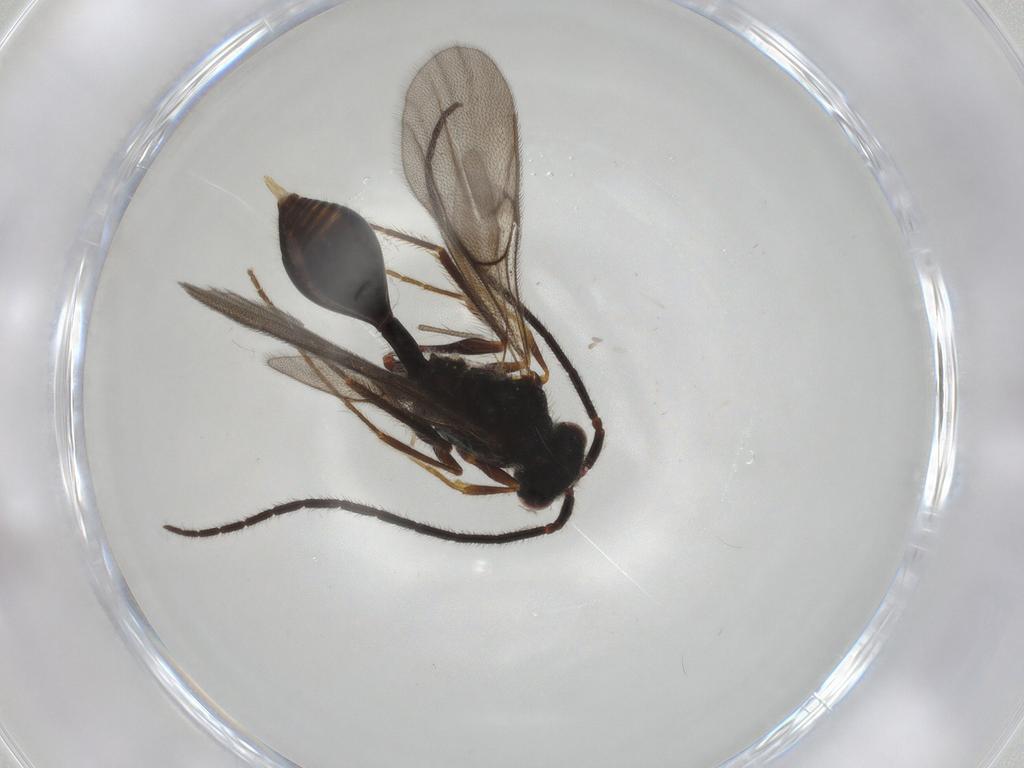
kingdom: Animalia
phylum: Arthropoda
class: Insecta
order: Hymenoptera
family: Diapriidae
